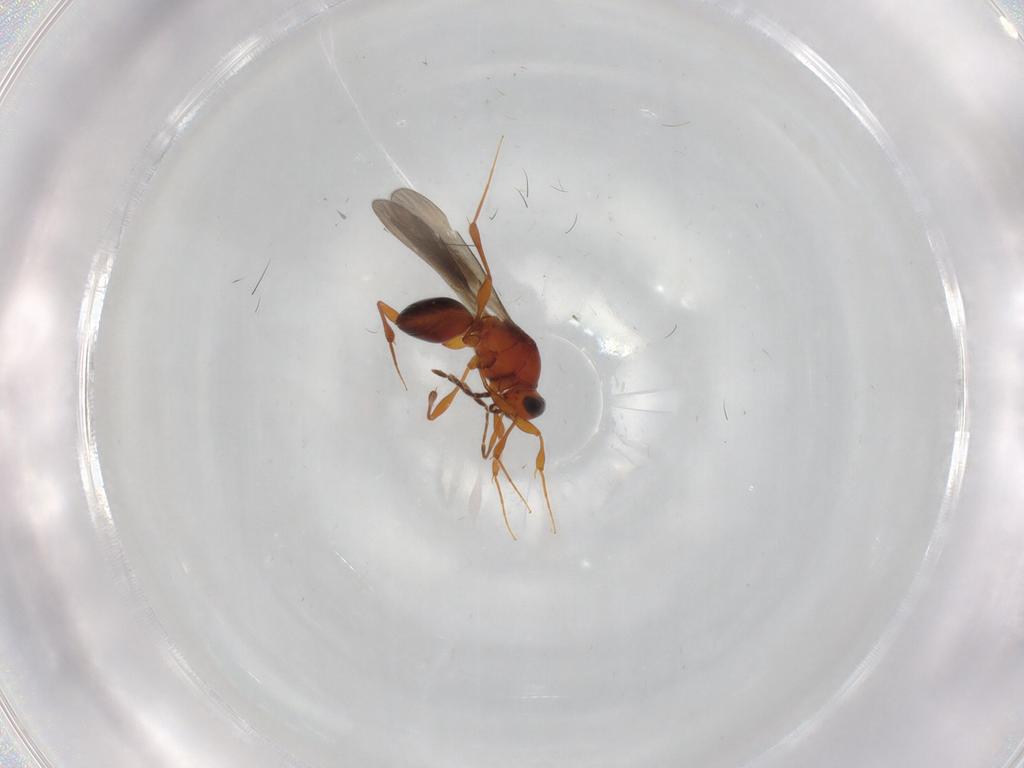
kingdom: Animalia
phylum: Arthropoda
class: Insecta
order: Hymenoptera
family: Platygastridae
